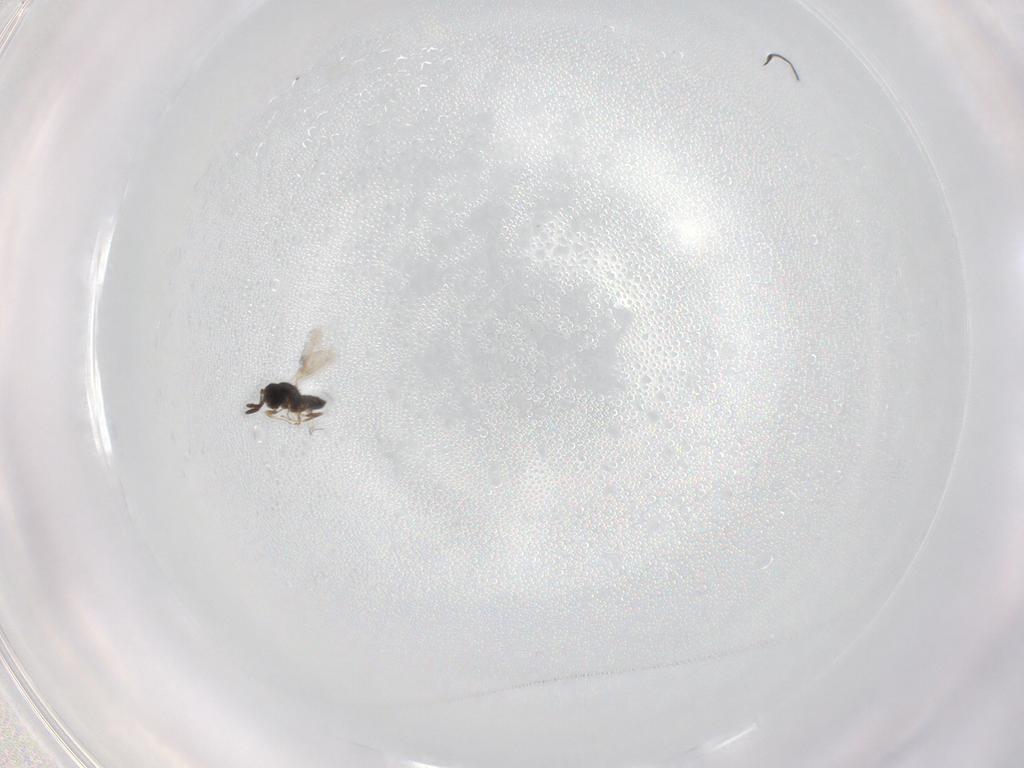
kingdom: Animalia
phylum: Arthropoda
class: Insecta
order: Hymenoptera
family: Scelionidae
